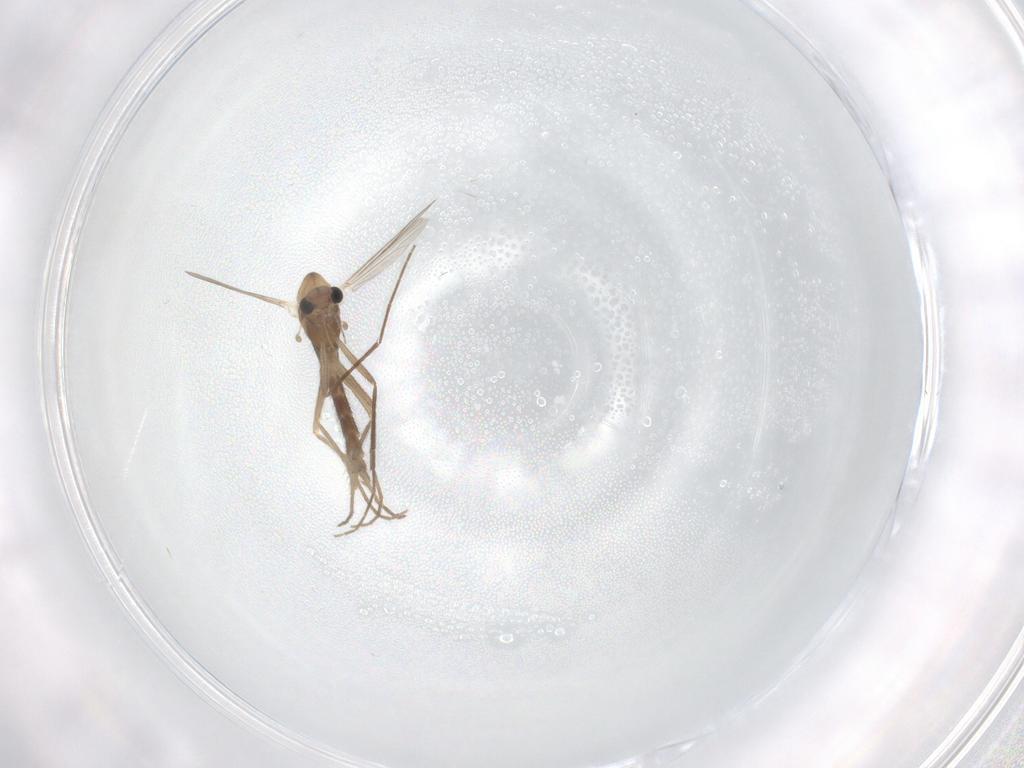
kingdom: Animalia
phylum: Arthropoda
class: Insecta
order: Diptera
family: Chironomidae
